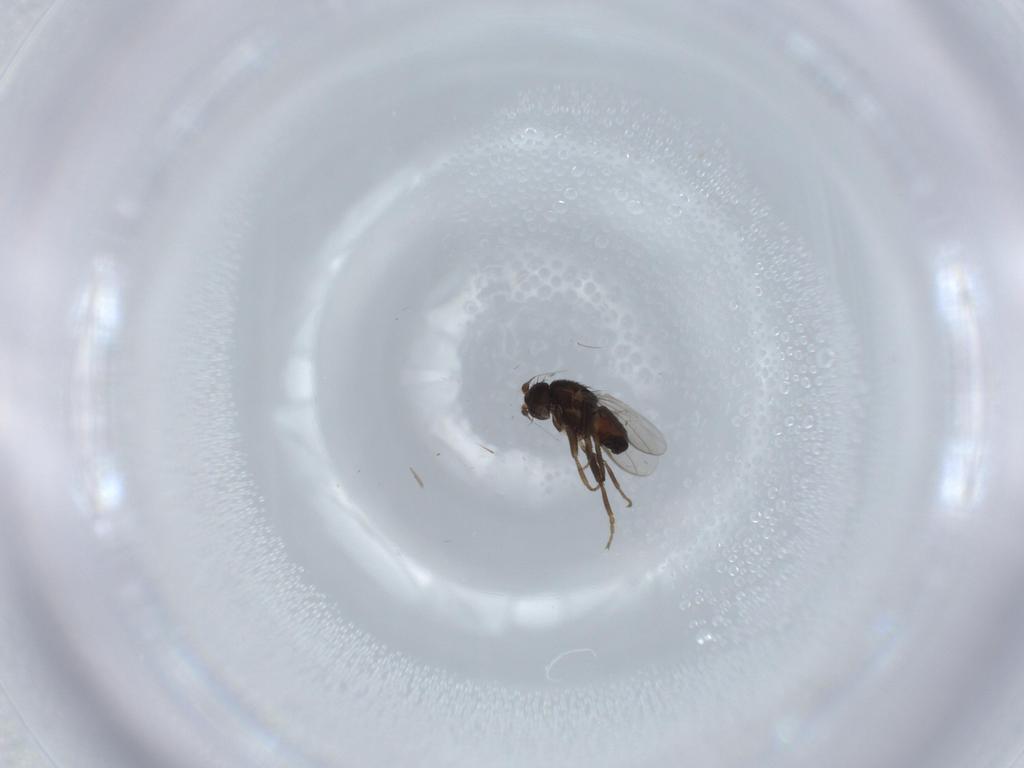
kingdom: Animalia
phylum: Arthropoda
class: Insecta
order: Diptera
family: Sphaeroceridae
